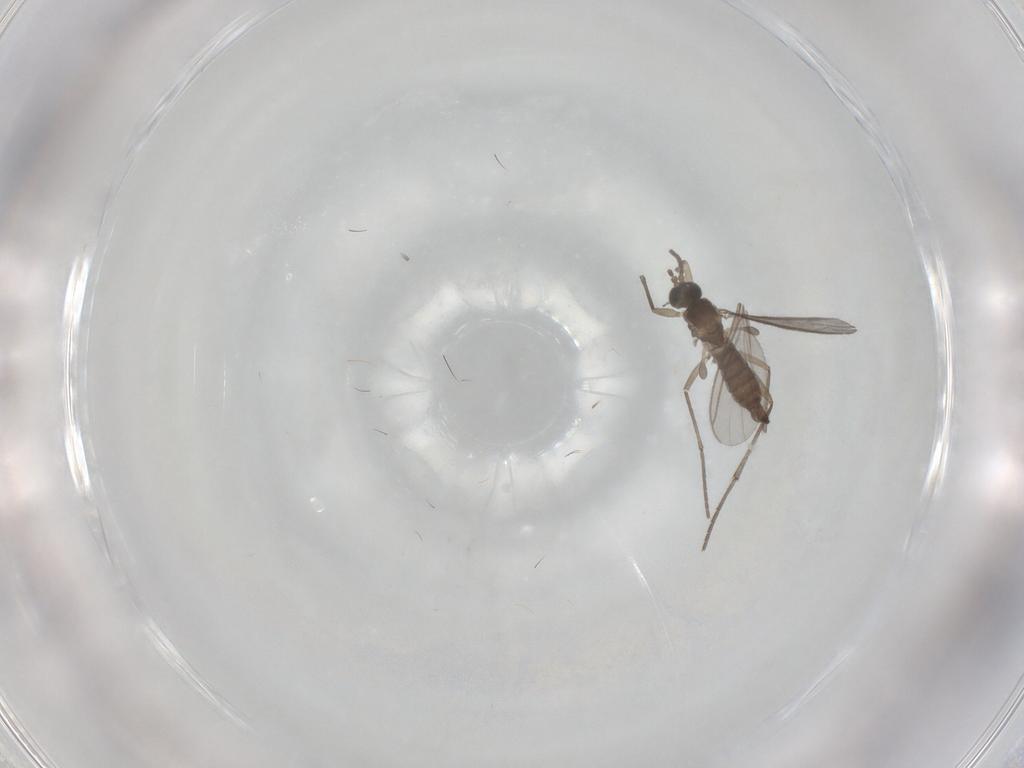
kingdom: Animalia
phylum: Arthropoda
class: Insecta
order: Diptera
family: Sciaridae
